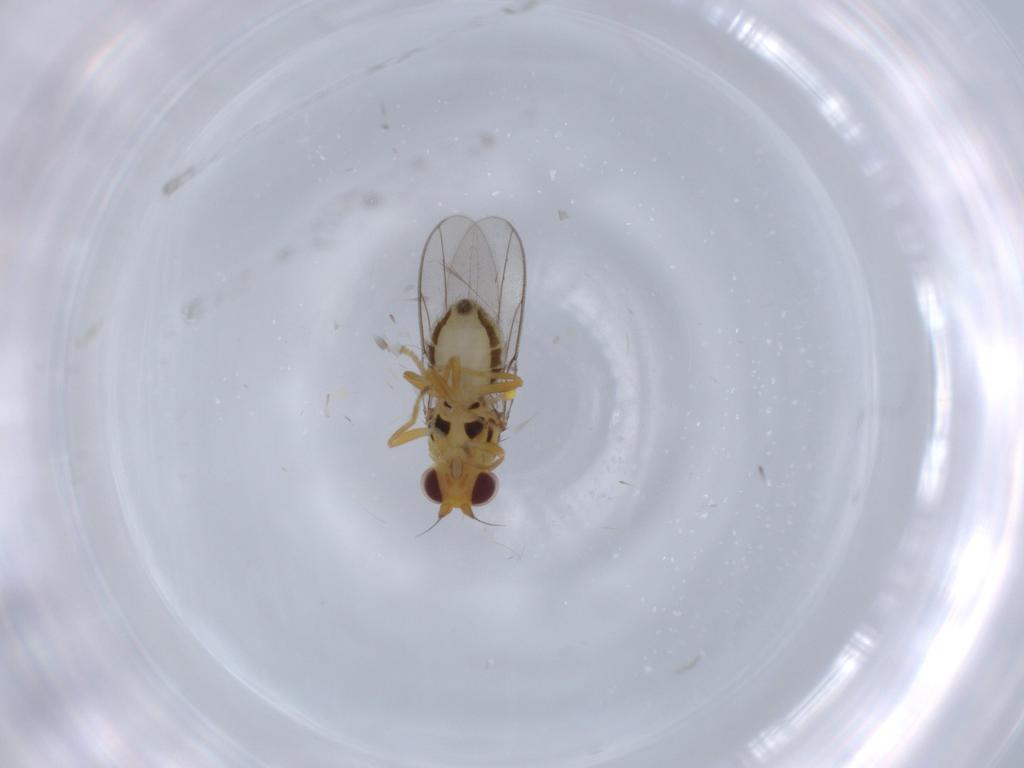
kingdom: Animalia
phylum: Arthropoda
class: Insecta
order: Diptera
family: Chloropidae
